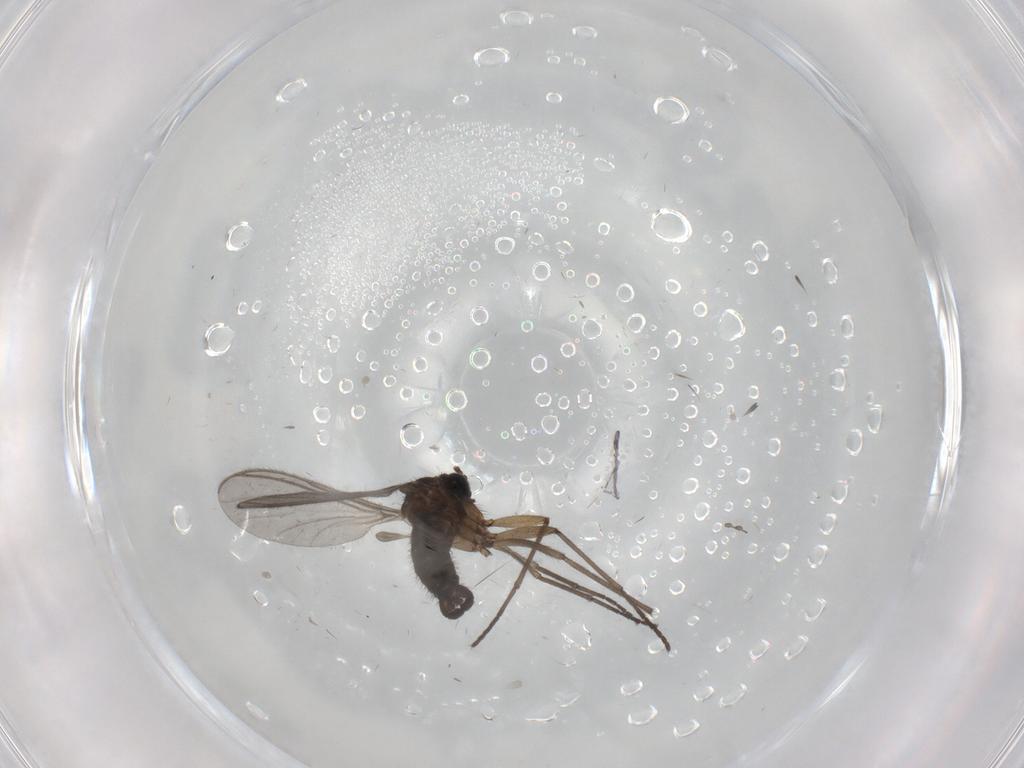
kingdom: Animalia
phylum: Arthropoda
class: Insecta
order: Diptera
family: Sciaridae
